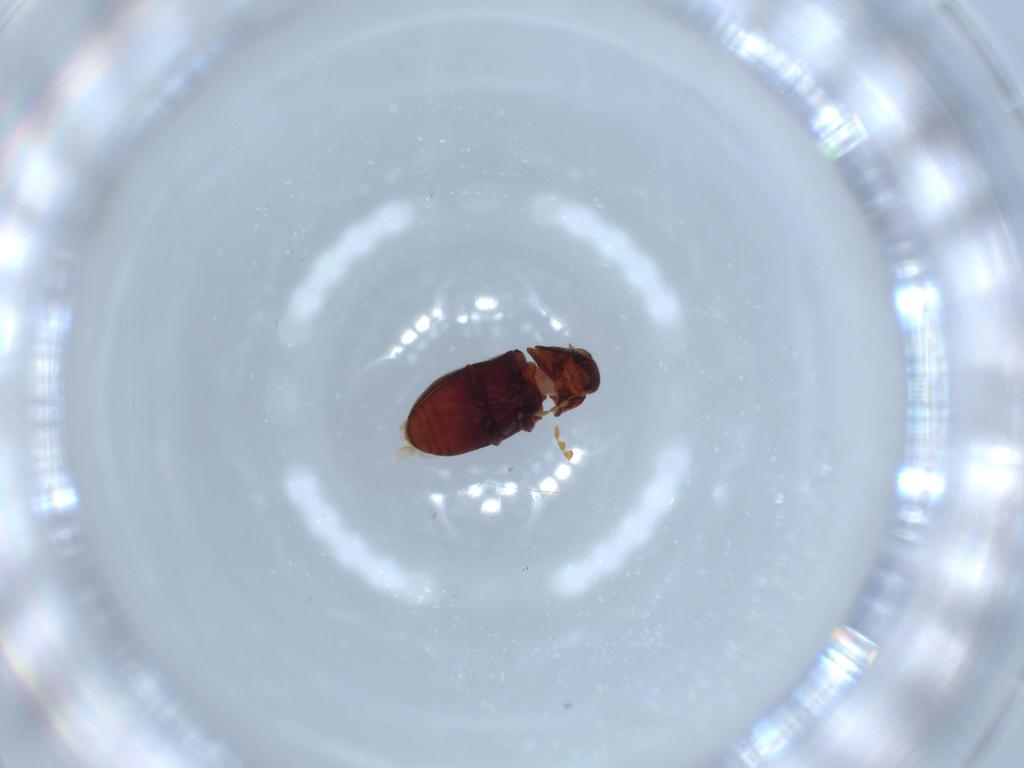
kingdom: Animalia
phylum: Arthropoda
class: Insecta
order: Coleoptera
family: Ptinidae
